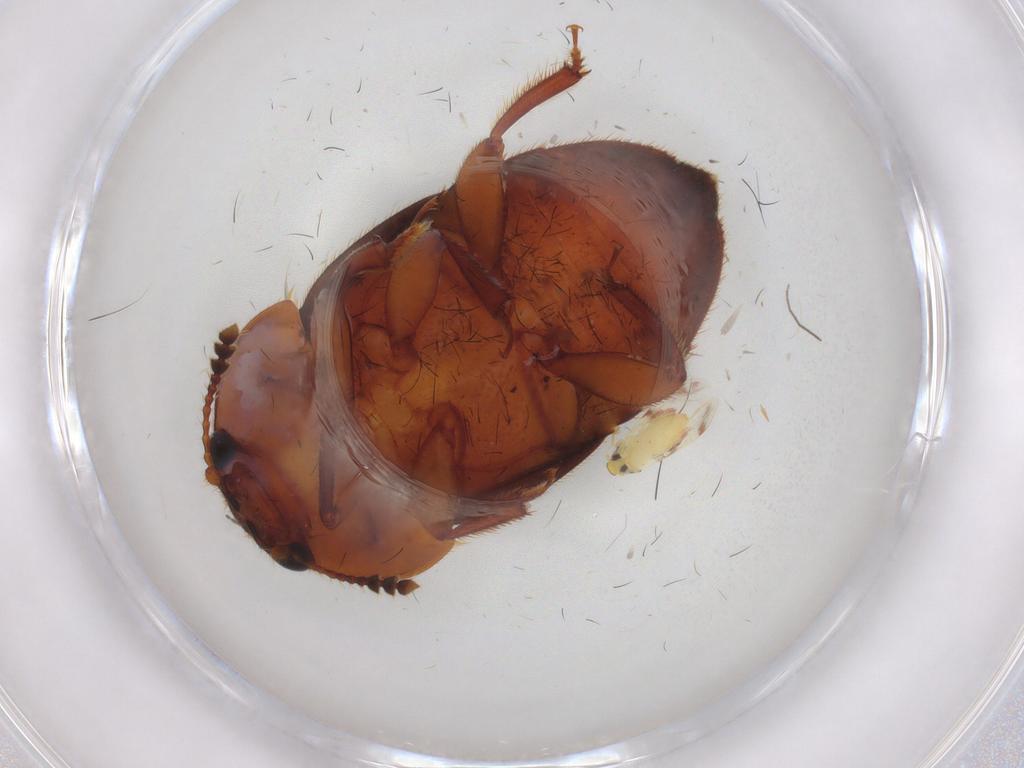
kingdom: Animalia
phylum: Arthropoda
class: Insecta
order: Coleoptera
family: Nitidulidae
